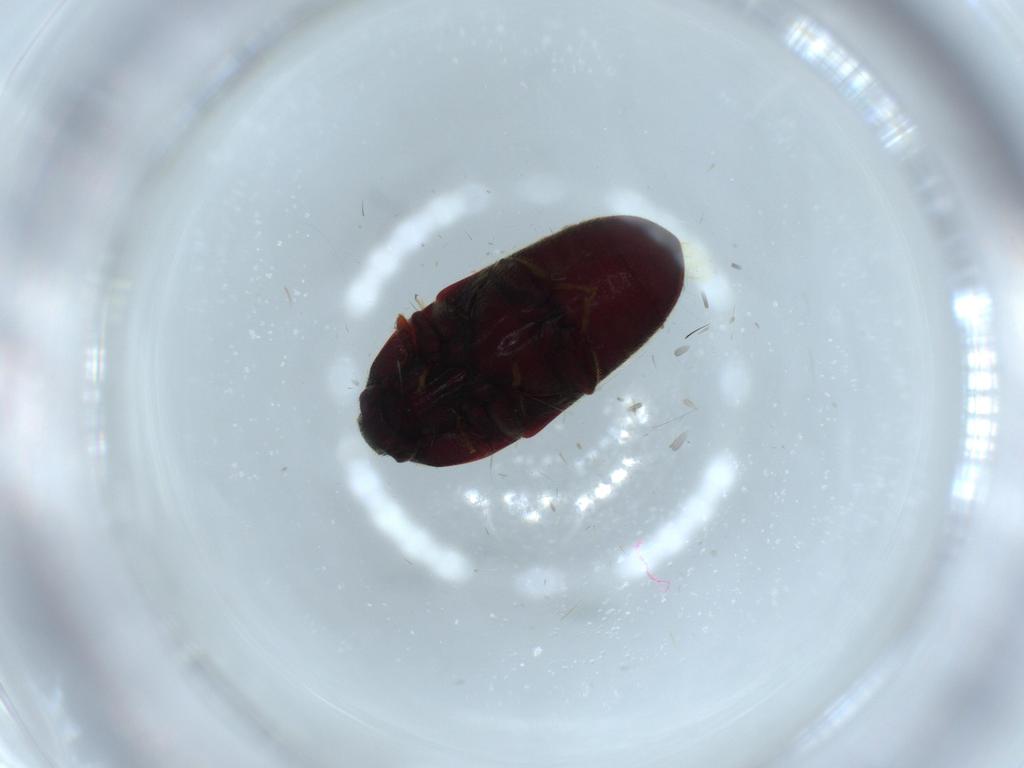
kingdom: Animalia
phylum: Arthropoda
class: Insecta
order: Coleoptera
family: Throscidae
